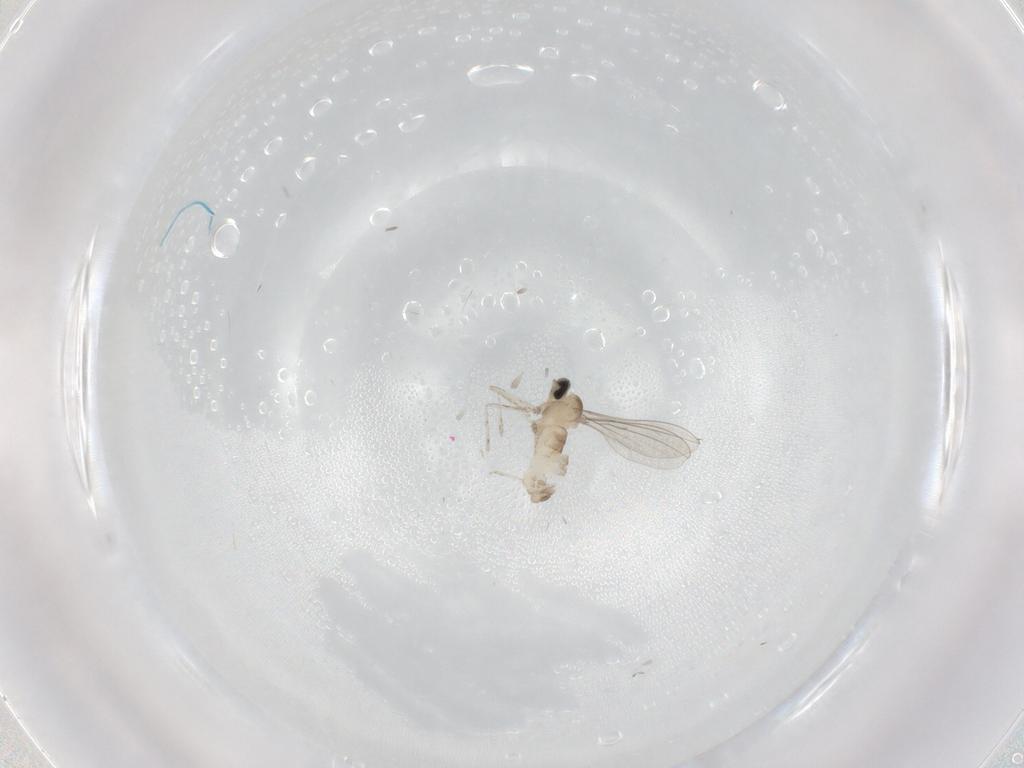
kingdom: Animalia
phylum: Arthropoda
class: Insecta
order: Diptera
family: Cecidomyiidae
